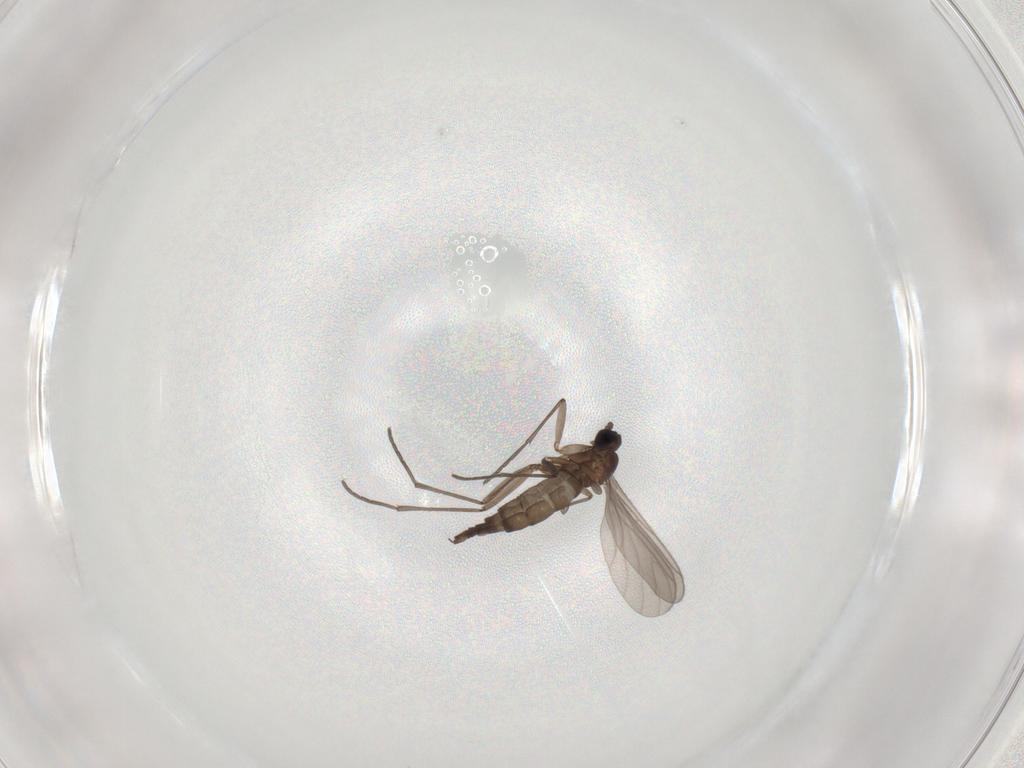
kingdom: Animalia
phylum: Arthropoda
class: Insecta
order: Diptera
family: Sciaridae
